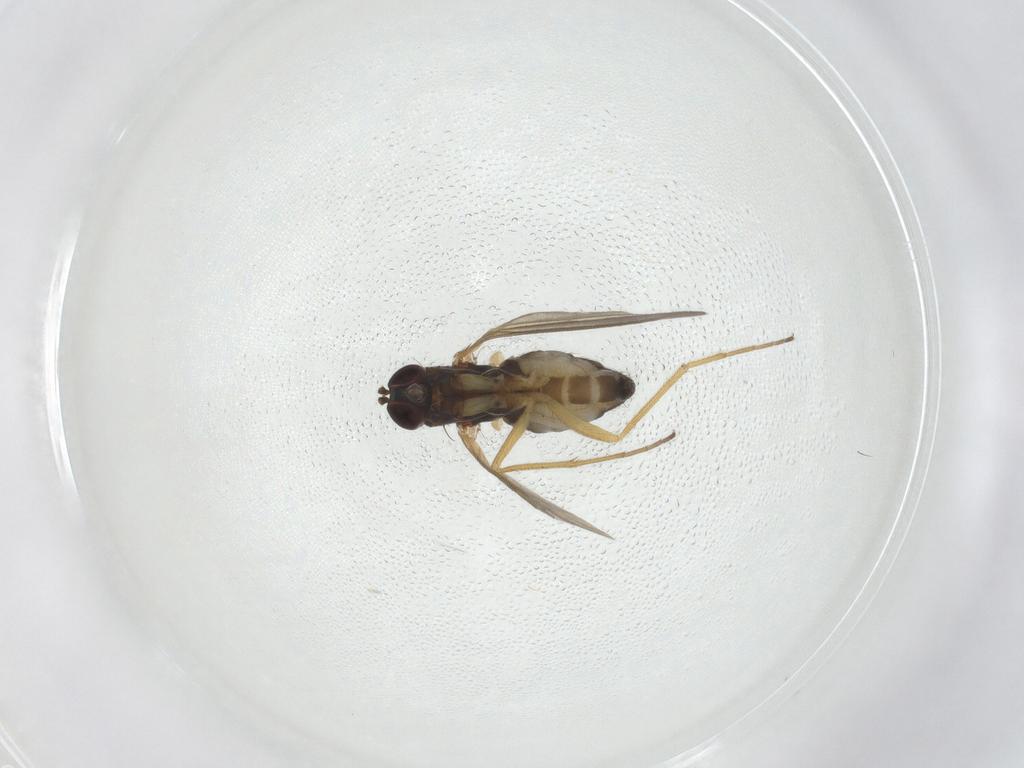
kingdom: Animalia
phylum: Arthropoda
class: Insecta
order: Diptera
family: Dolichopodidae
